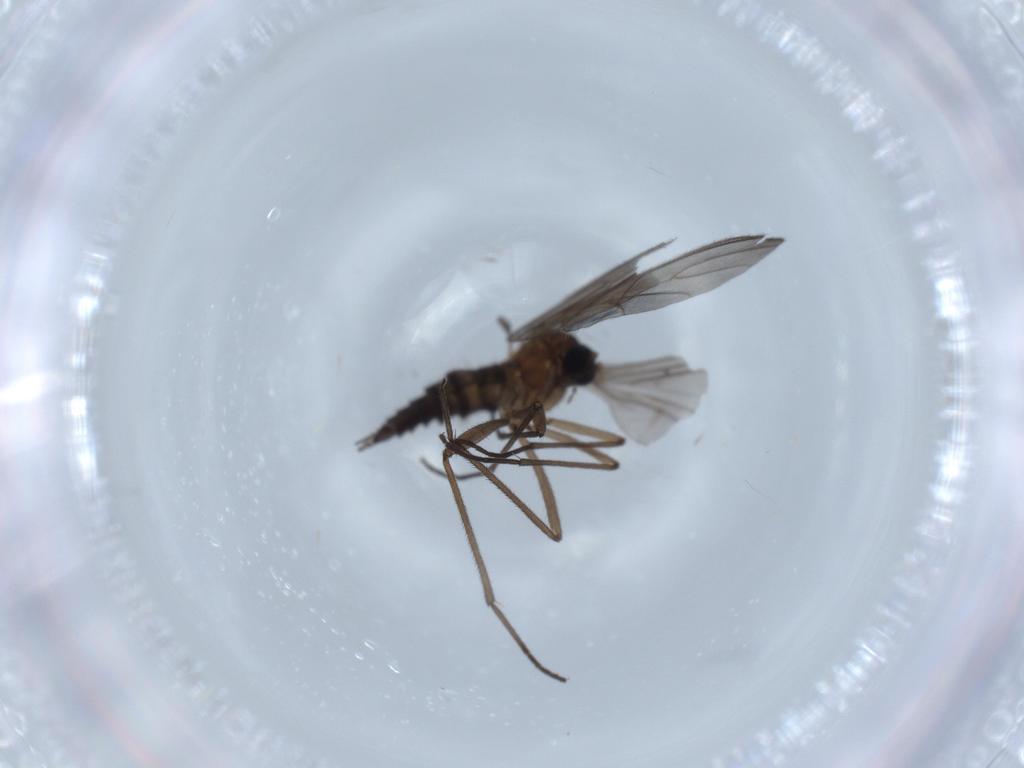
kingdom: Animalia
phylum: Arthropoda
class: Insecta
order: Diptera
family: Sciaridae
